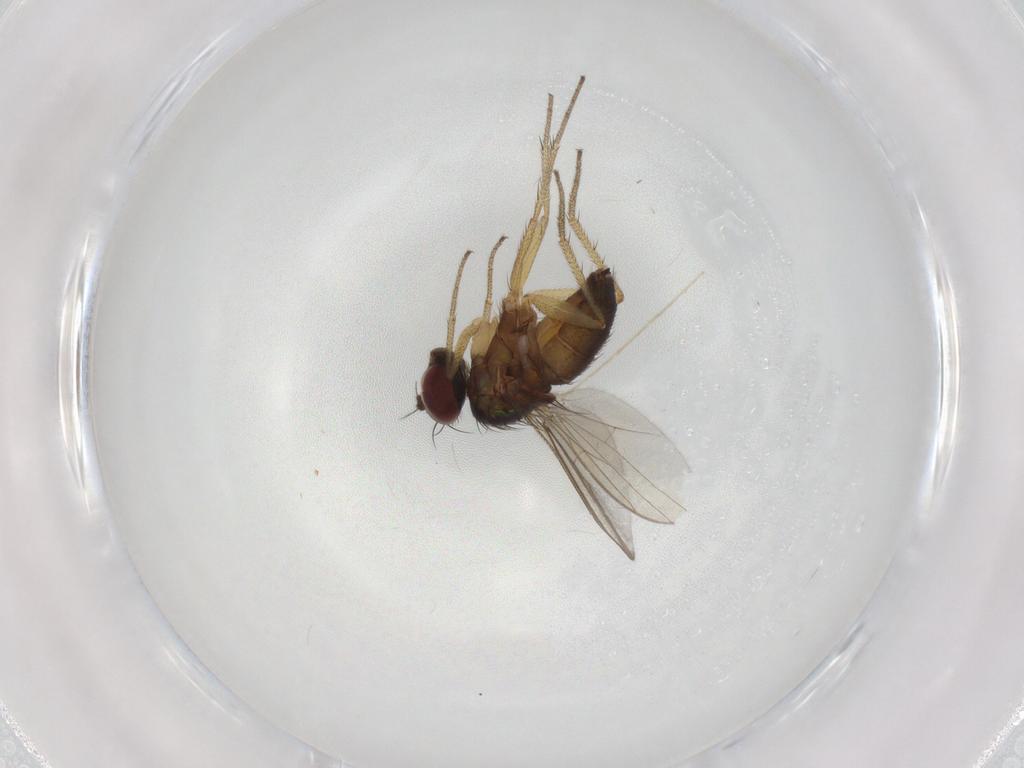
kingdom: Animalia
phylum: Arthropoda
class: Insecta
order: Diptera
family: Dolichopodidae
